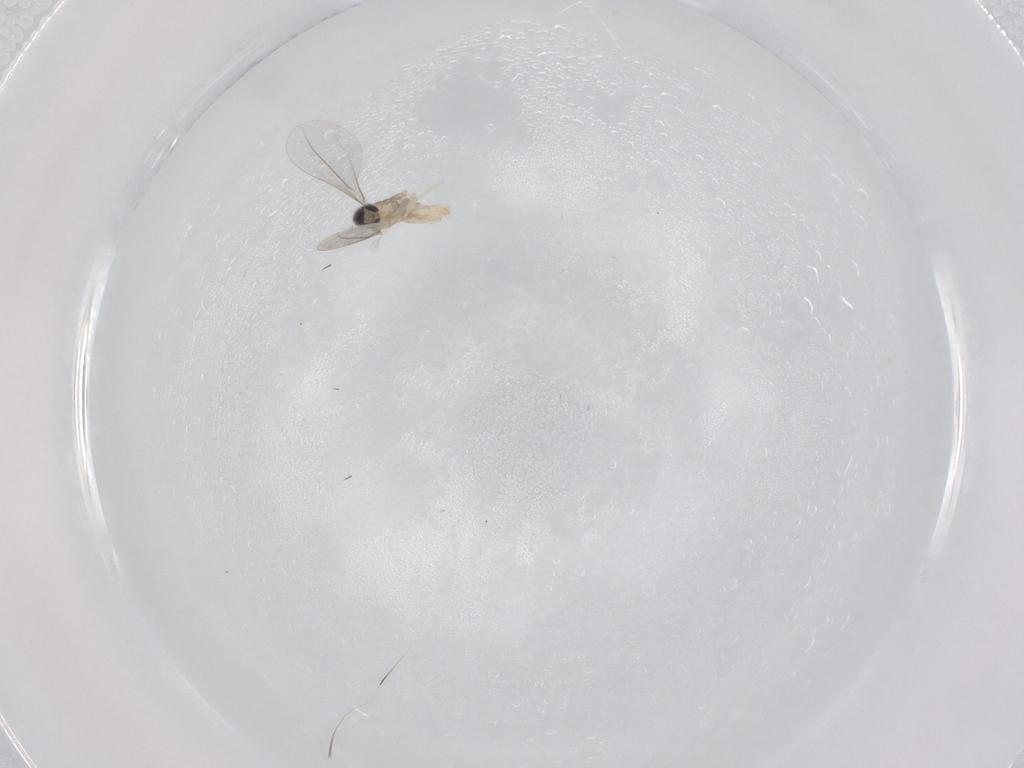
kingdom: Animalia
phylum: Arthropoda
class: Insecta
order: Diptera
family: Cecidomyiidae
